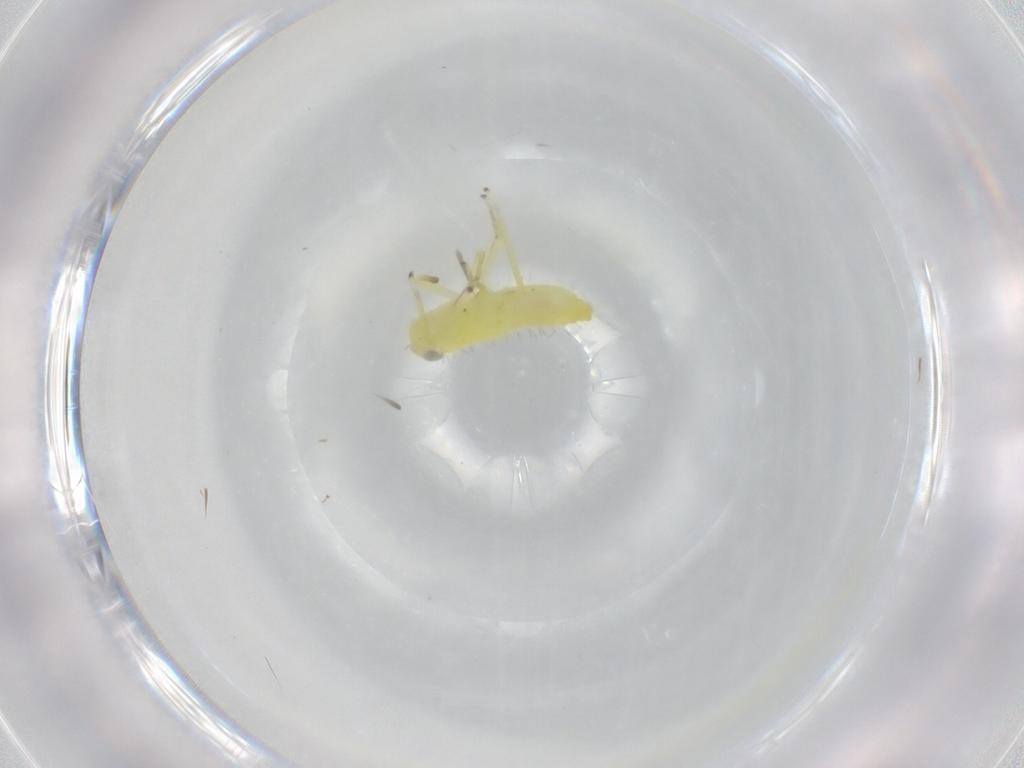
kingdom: Animalia
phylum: Arthropoda
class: Insecta
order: Hemiptera
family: Cicadellidae
